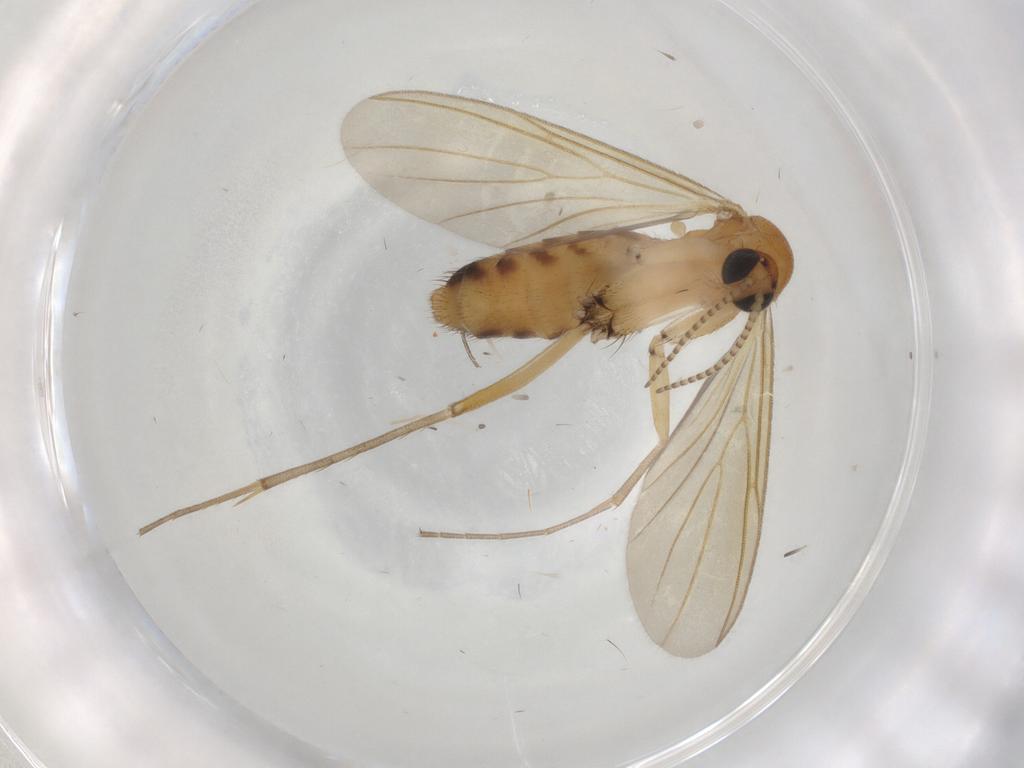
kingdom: Animalia
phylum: Arthropoda
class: Insecta
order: Diptera
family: Mycetophilidae
